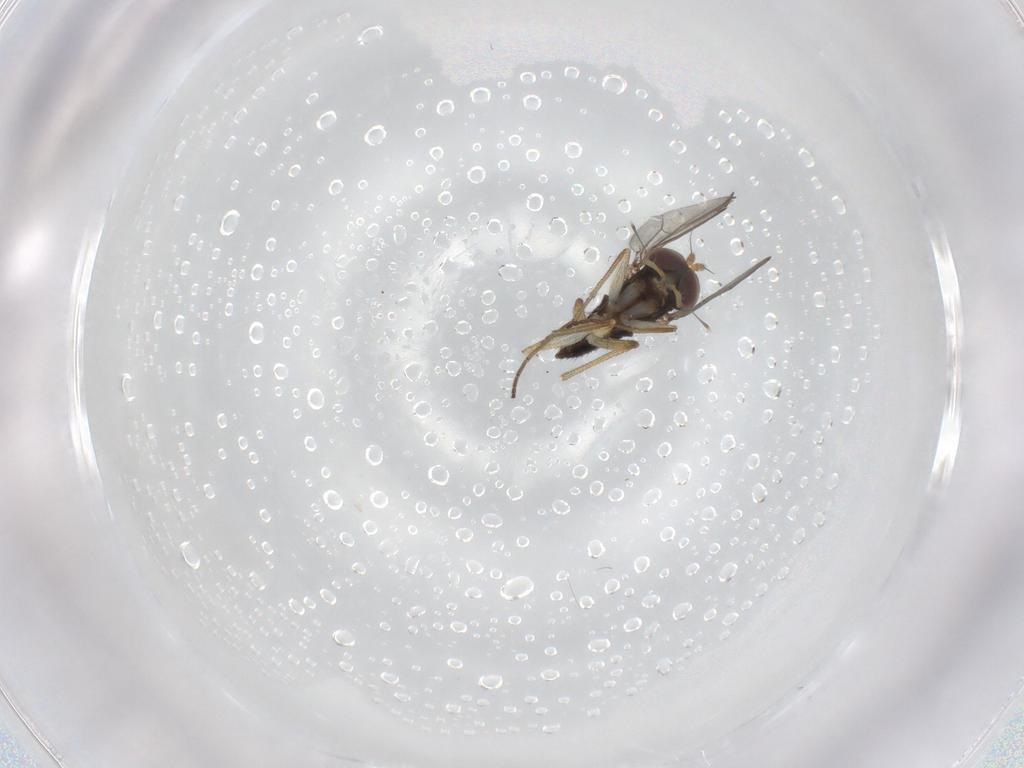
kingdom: Animalia
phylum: Arthropoda
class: Insecta
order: Diptera
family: Dolichopodidae
